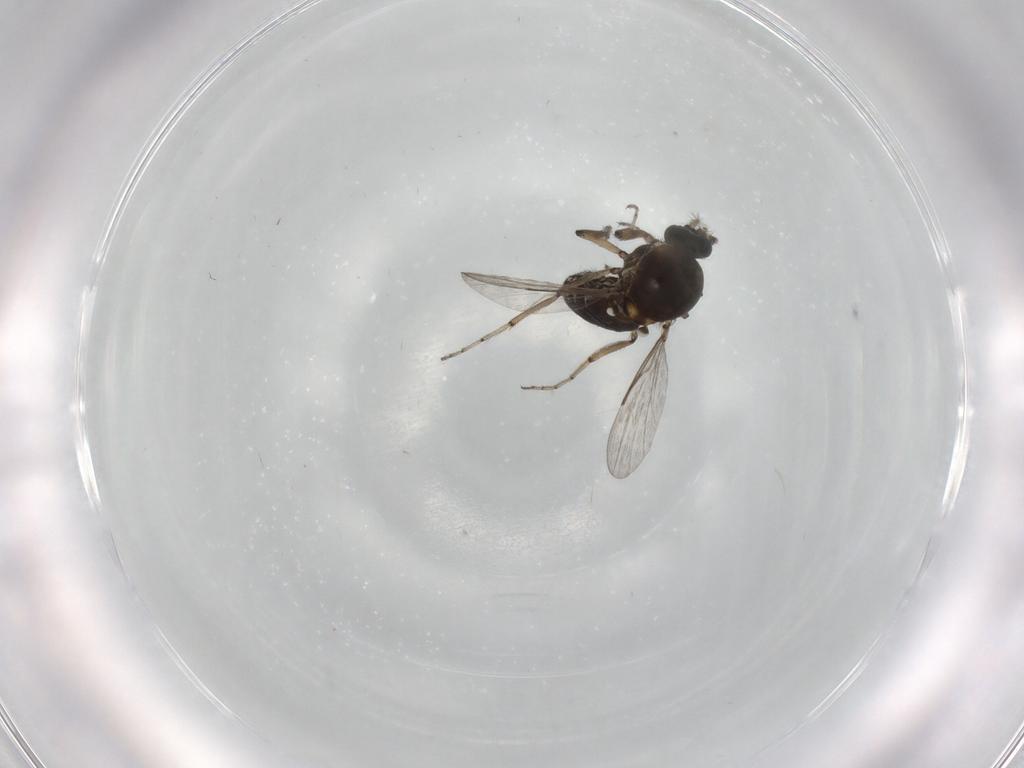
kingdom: Animalia
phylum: Arthropoda
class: Insecta
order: Diptera
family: Ceratopogonidae
